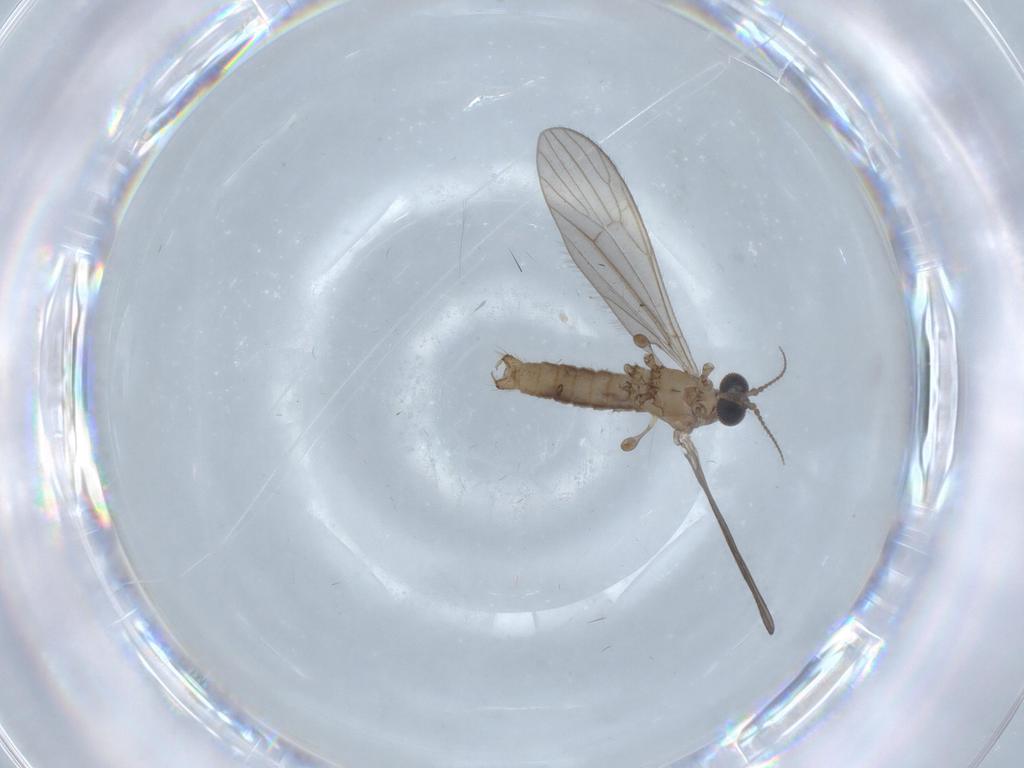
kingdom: Animalia
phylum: Arthropoda
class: Insecta
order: Diptera
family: Limoniidae
